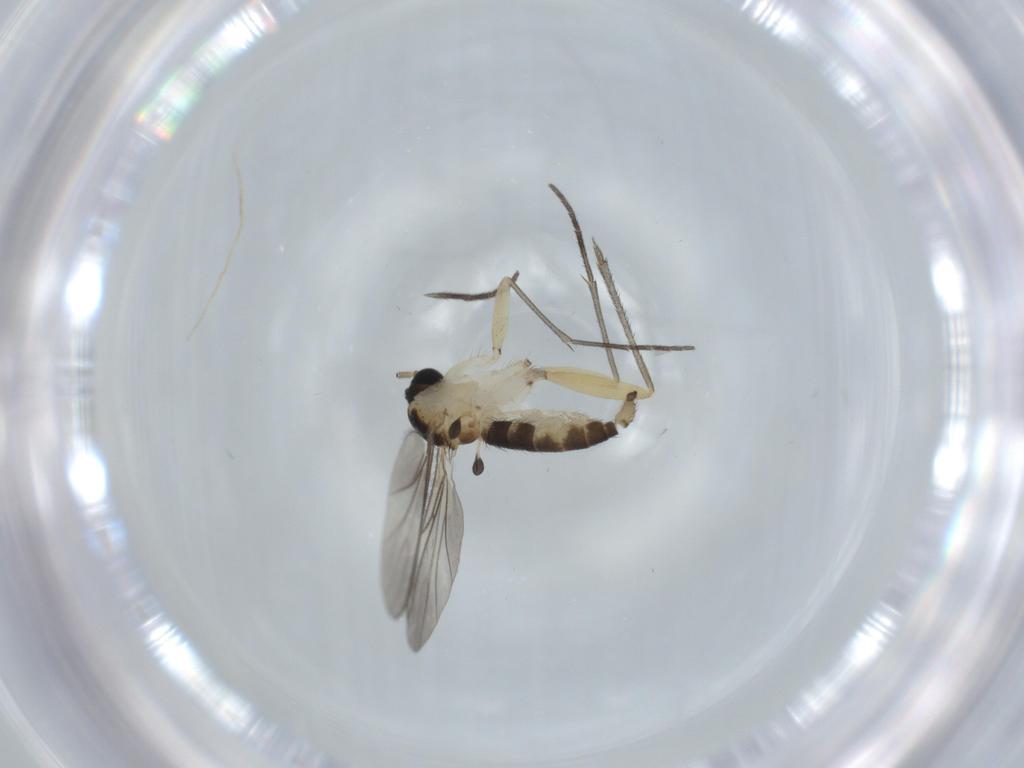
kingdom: Animalia
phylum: Arthropoda
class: Insecta
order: Diptera
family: Sciaridae
